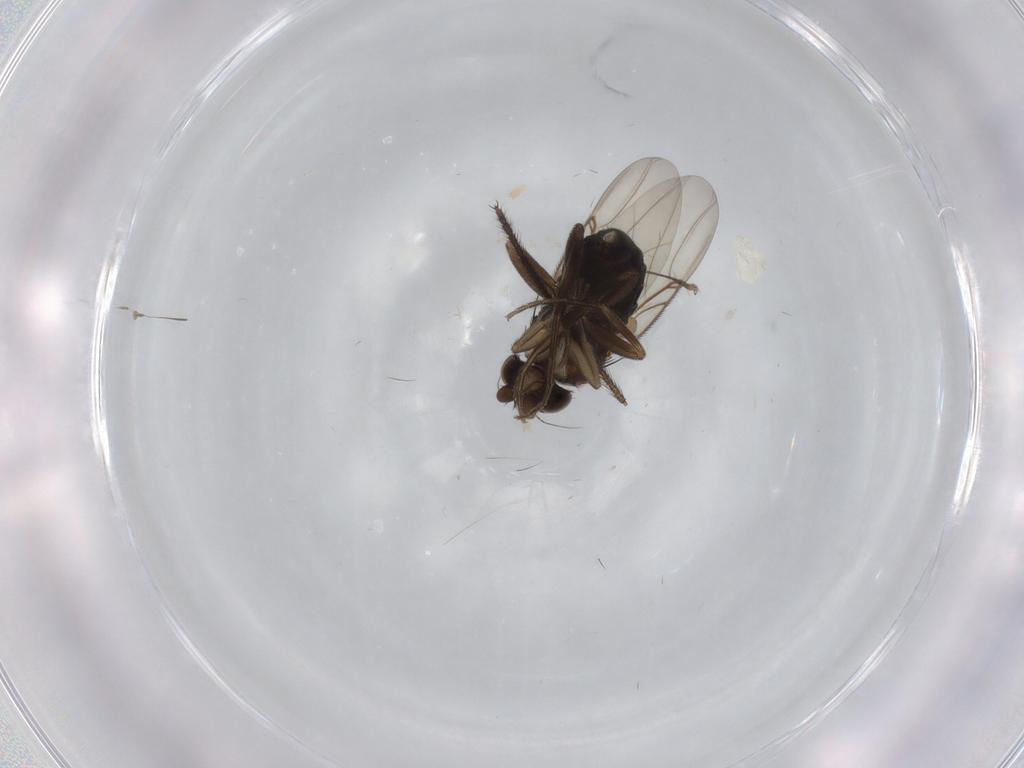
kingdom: Animalia
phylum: Arthropoda
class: Insecta
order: Diptera
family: Phoridae
